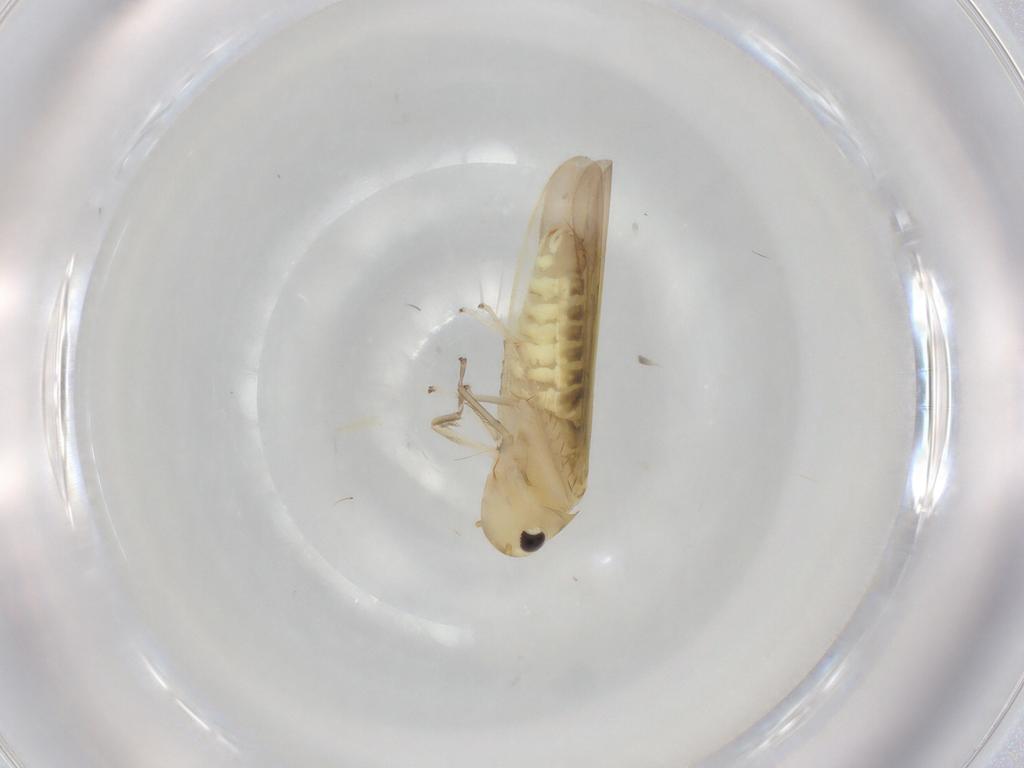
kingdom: Animalia
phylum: Arthropoda
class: Insecta
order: Hemiptera
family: Cicadellidae
